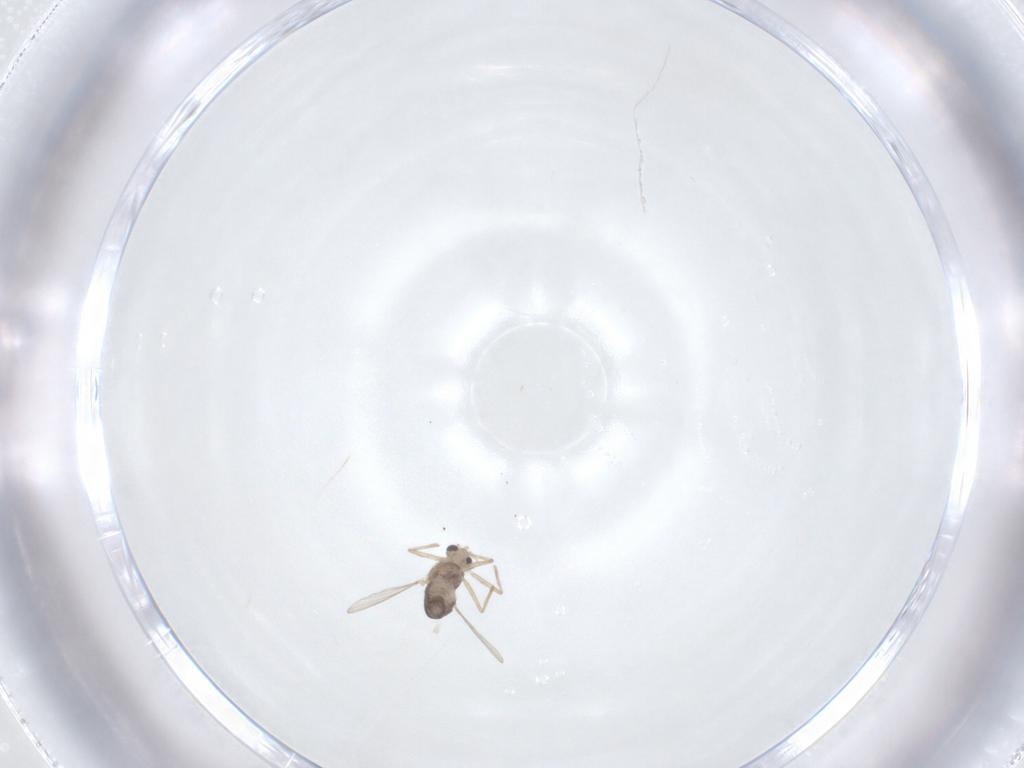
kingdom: Animalia
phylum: Arthropoda
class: Insecta
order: Diptera
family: Chironomidae
